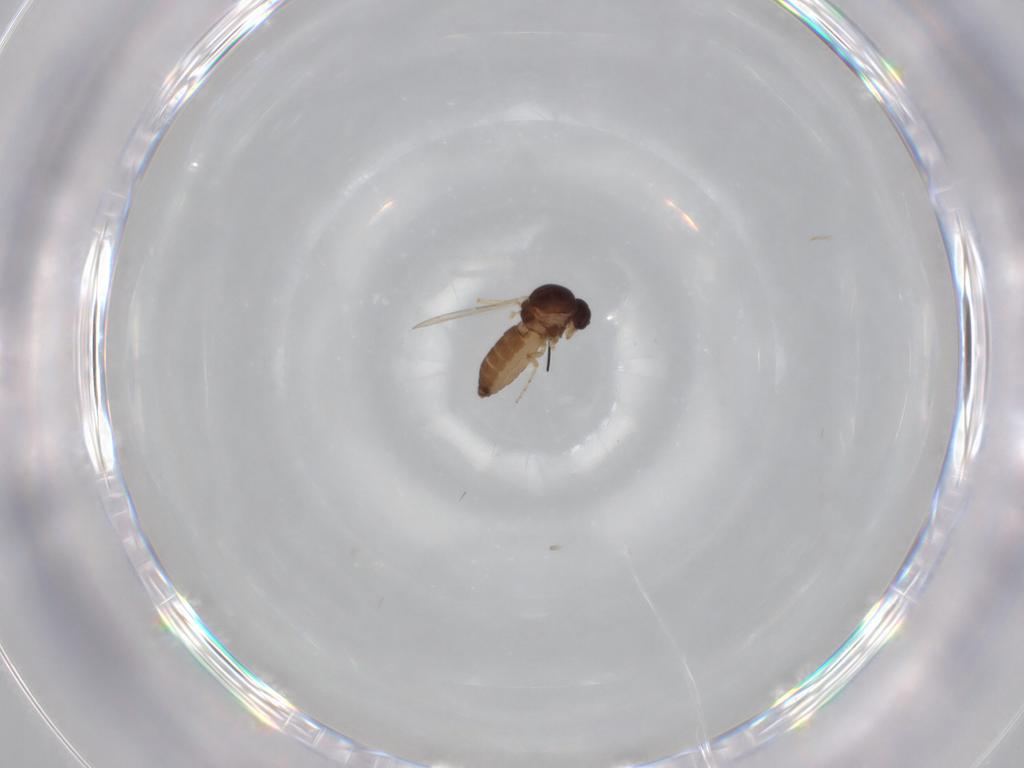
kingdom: Animalia
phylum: Arthropoda
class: Insecta
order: Diptera
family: Ceratopogonidae
